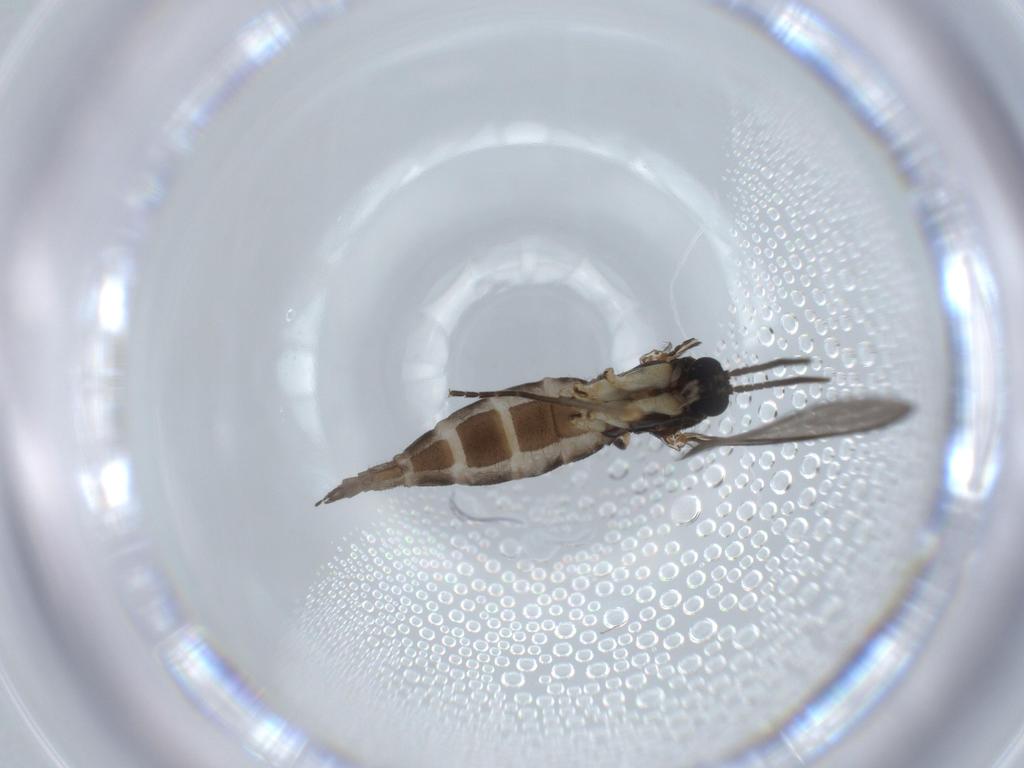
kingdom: Animalia
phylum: Arthropoda
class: Insecta
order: Diptera
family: Sciaridae
